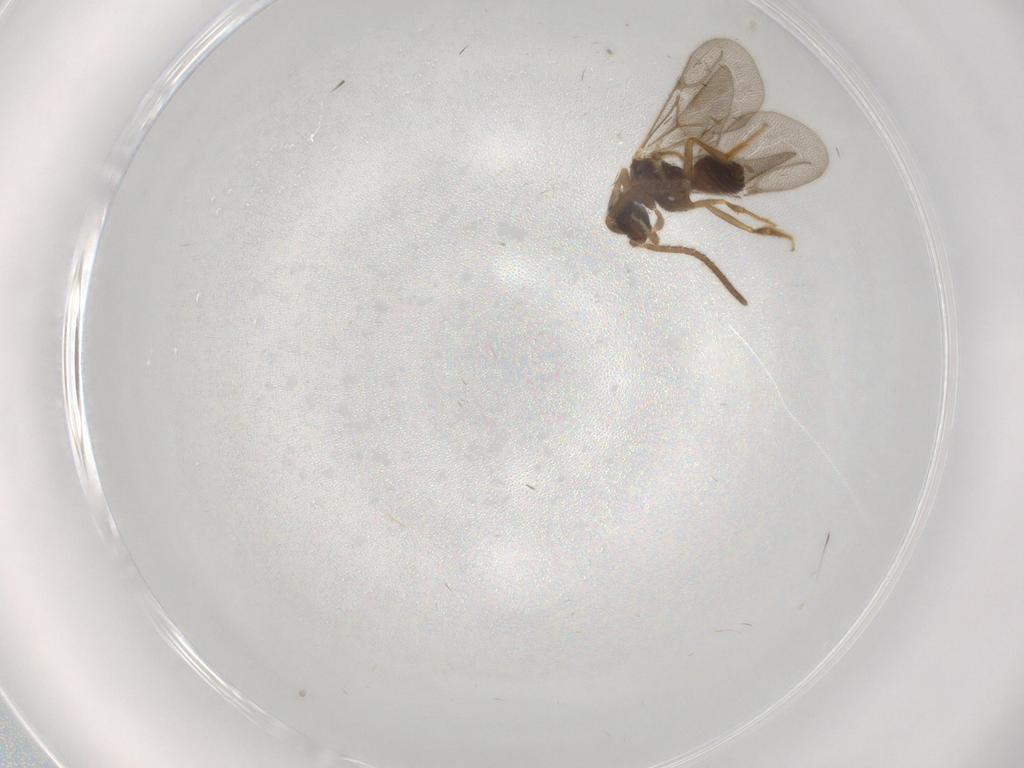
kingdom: Animalia
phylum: Arthropoda
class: Insecta
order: Hymenoptera
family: Bethylidae
